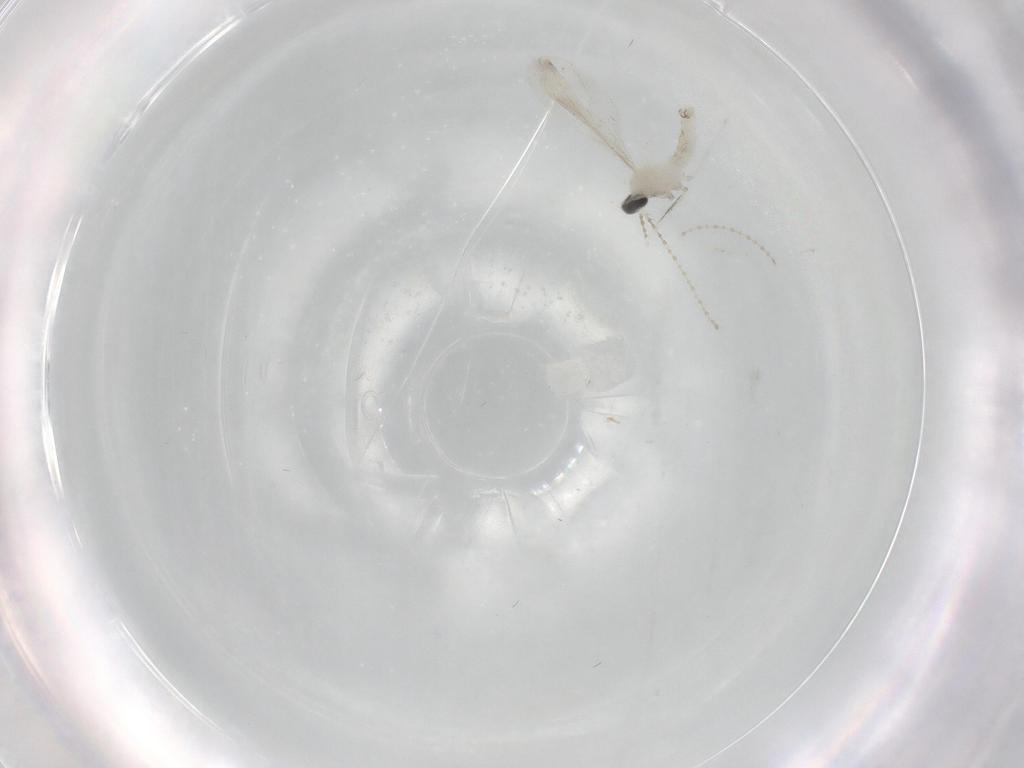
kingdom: Animalia
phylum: Arthropoda
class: Insecta
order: Diptera
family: Cecidomyiidae
